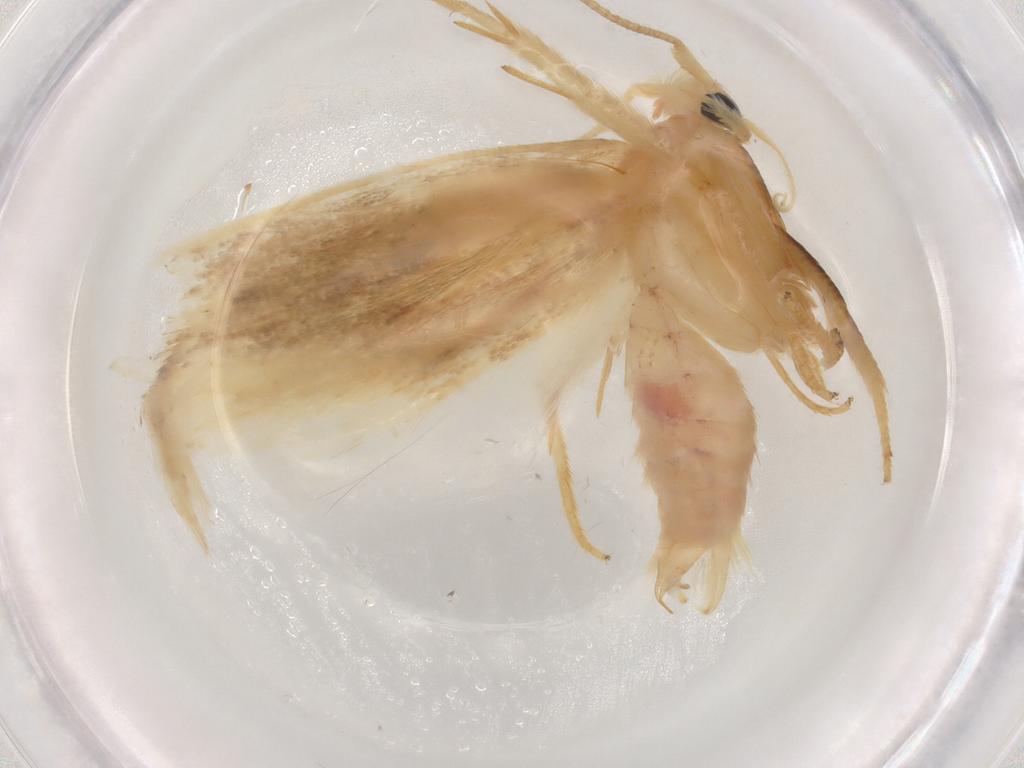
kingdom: Animalia
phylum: Arthropoda
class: Insecta
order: Lepidoptera
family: Geometridae
